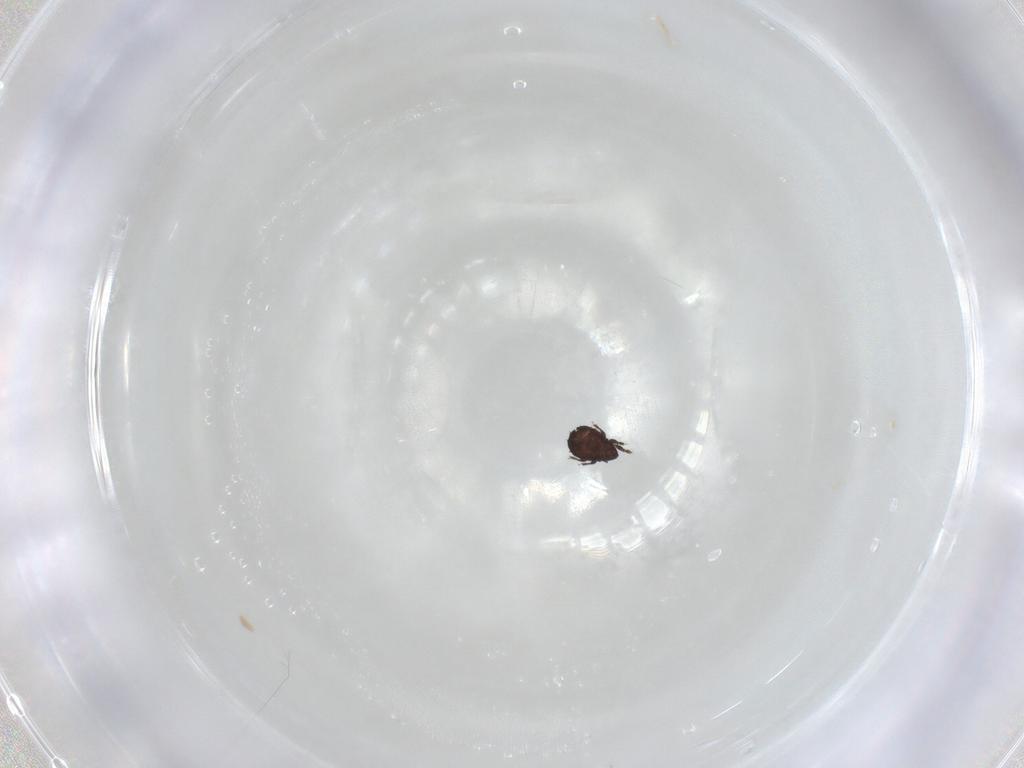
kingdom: Animalia
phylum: Arthropoda
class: Arachnida
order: Sarcoptiformes
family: Cymbaeremaeidae
